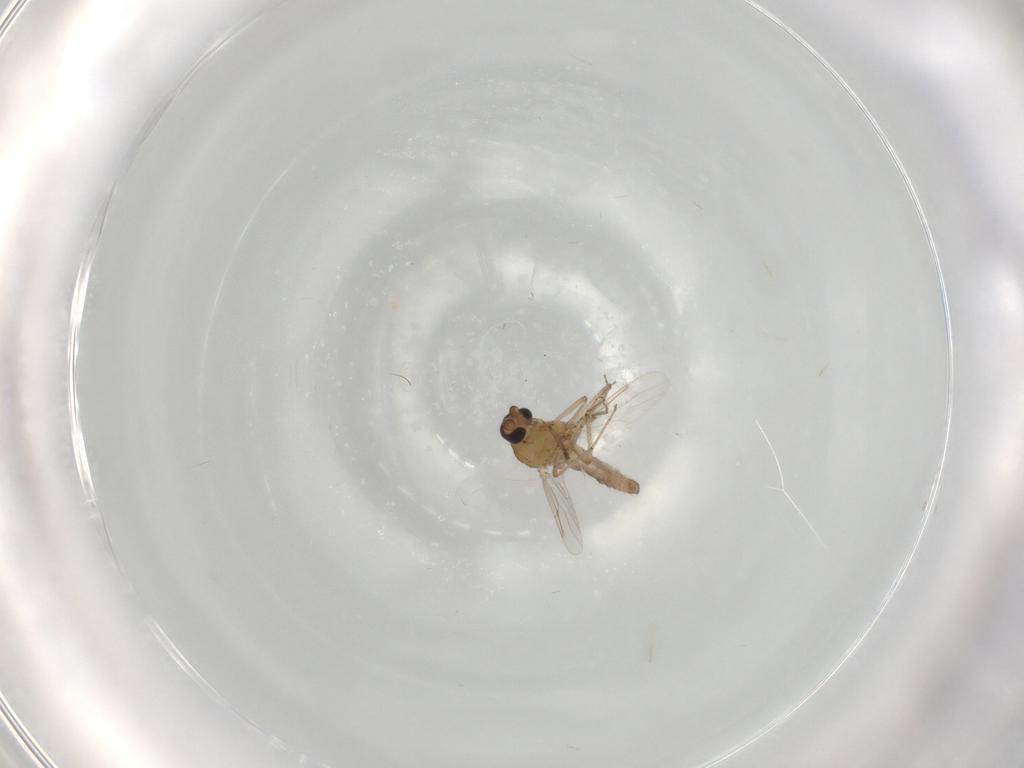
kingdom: Animalia
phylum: Arthropoda
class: Insecta
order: Diptera
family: Ceratopogonidae
